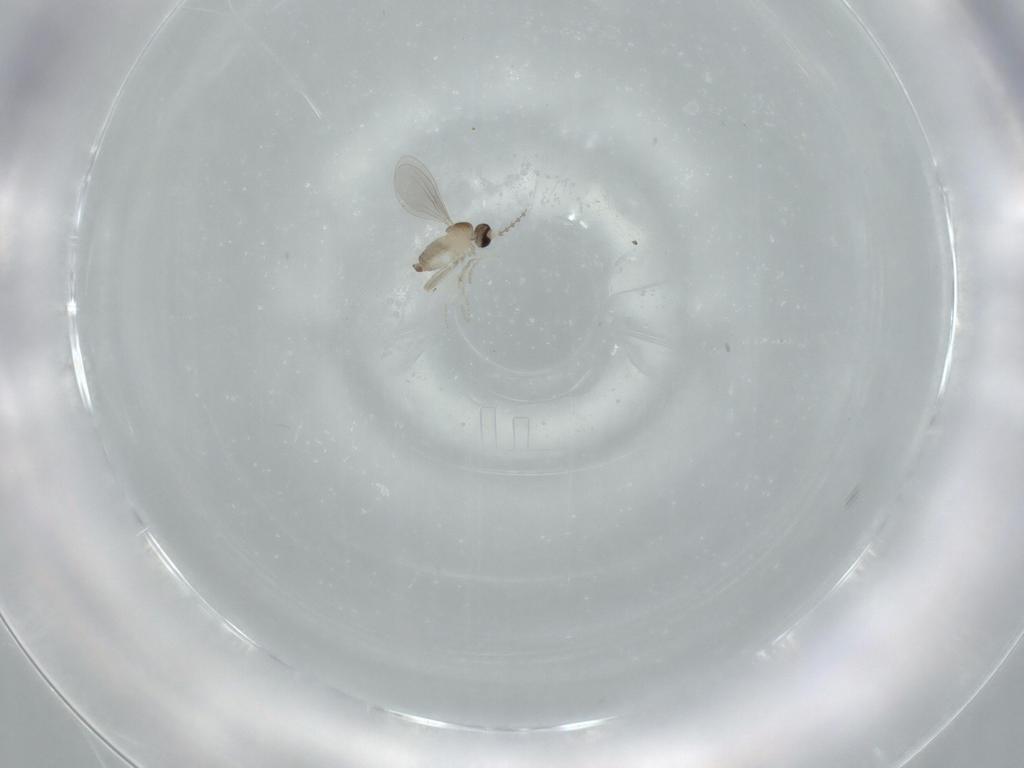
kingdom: Animalia
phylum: Arthropoda
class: Insecta
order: Diptera
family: Cecidomyiidae
